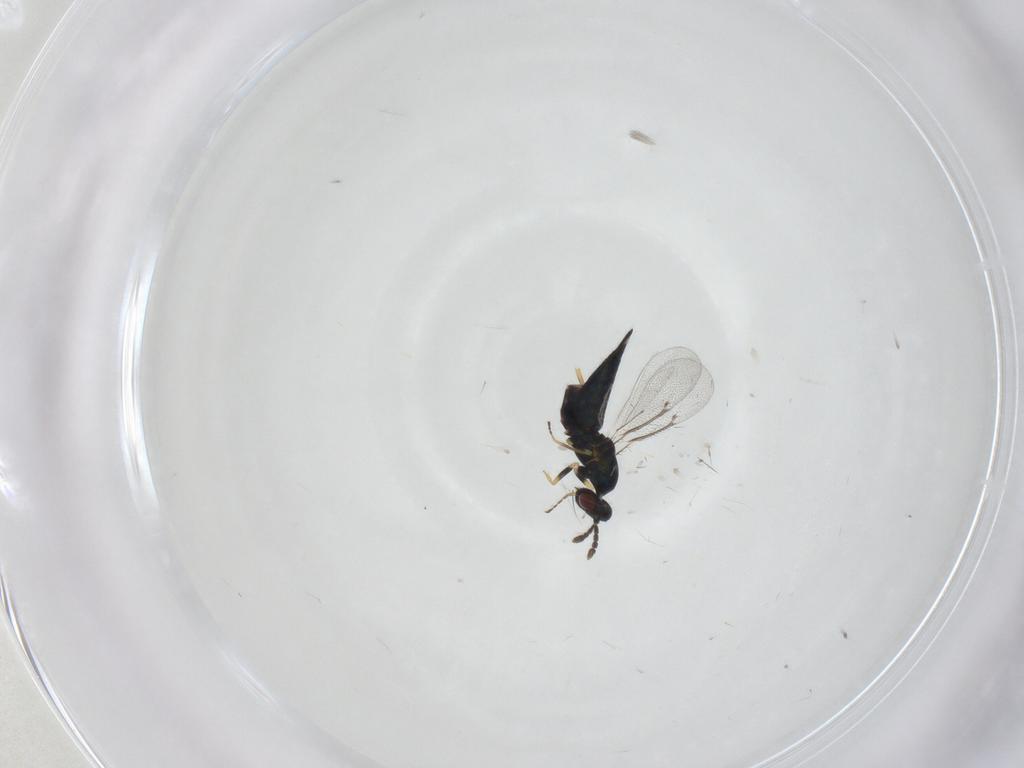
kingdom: Animalia
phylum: Arthropoda
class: Insecta
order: Hymenoptera
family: Eulophidae
